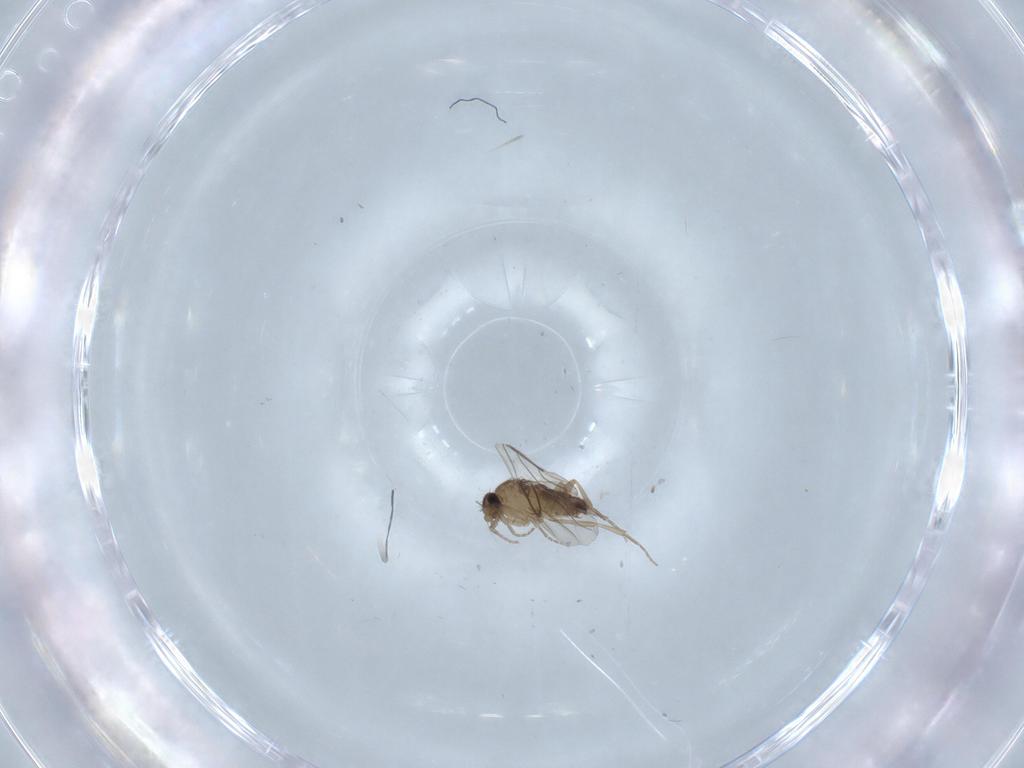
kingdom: Animalia
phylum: Arthropoda
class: Insecta
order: Diptera
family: Phoridae
